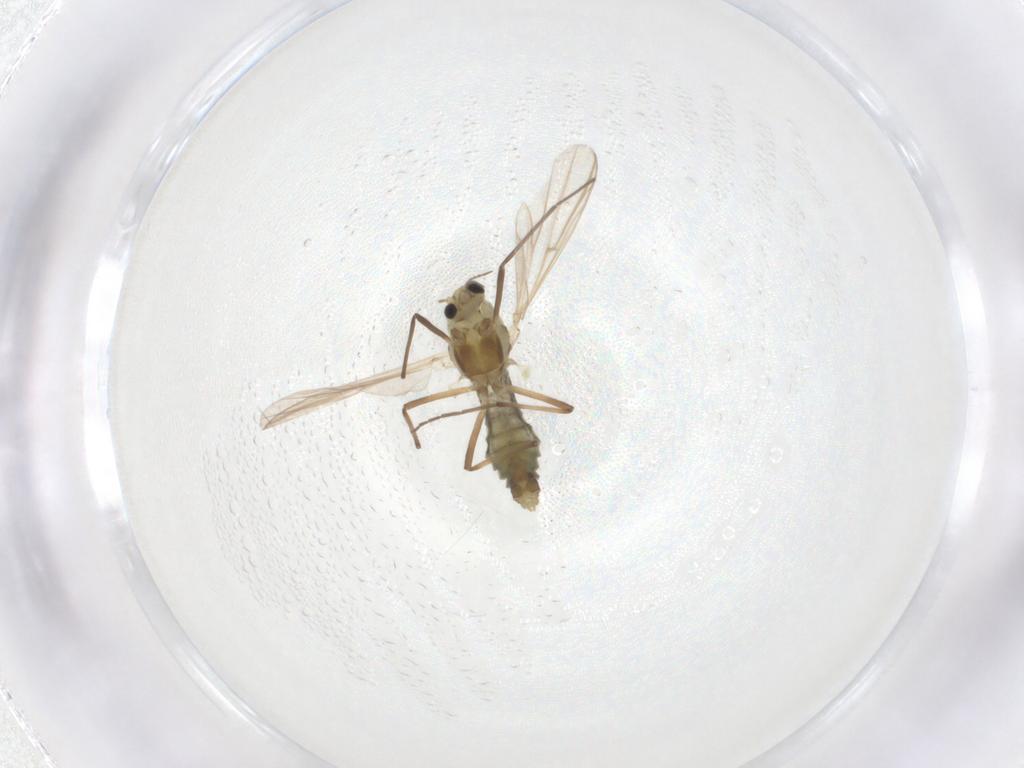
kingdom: Animalia
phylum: Arthropoda
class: Insecta
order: Diptera
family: Chironomidae
